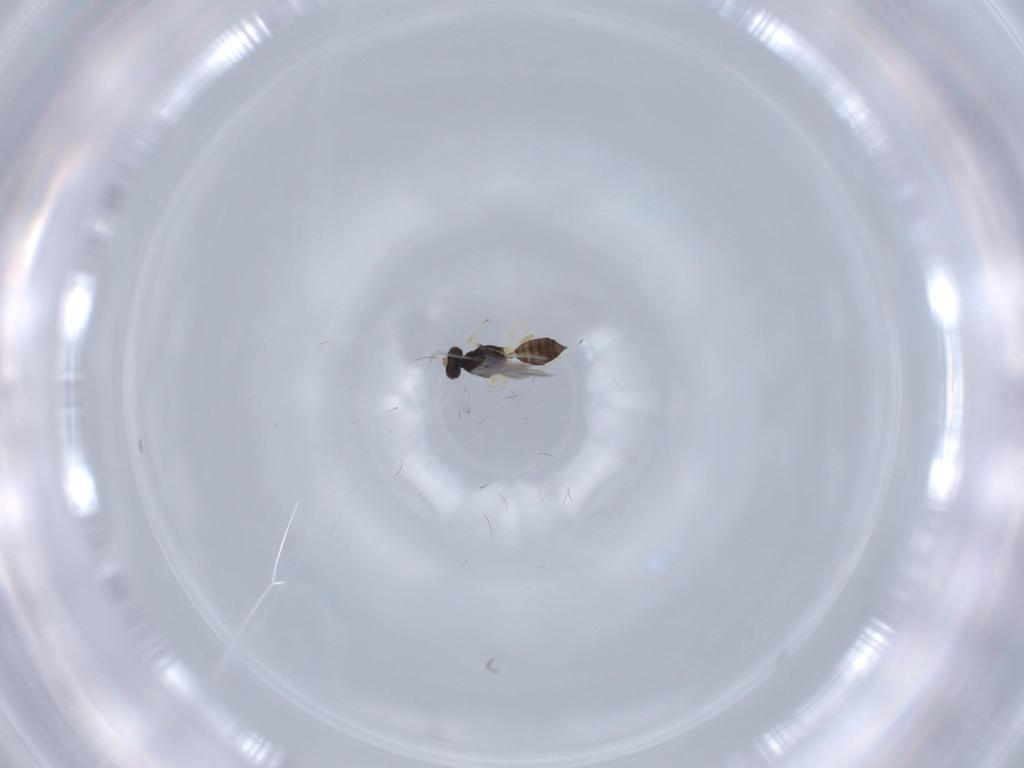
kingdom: Animalia
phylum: Arthropoda
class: Insecta
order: Hymenoptera
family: Eulophidae
